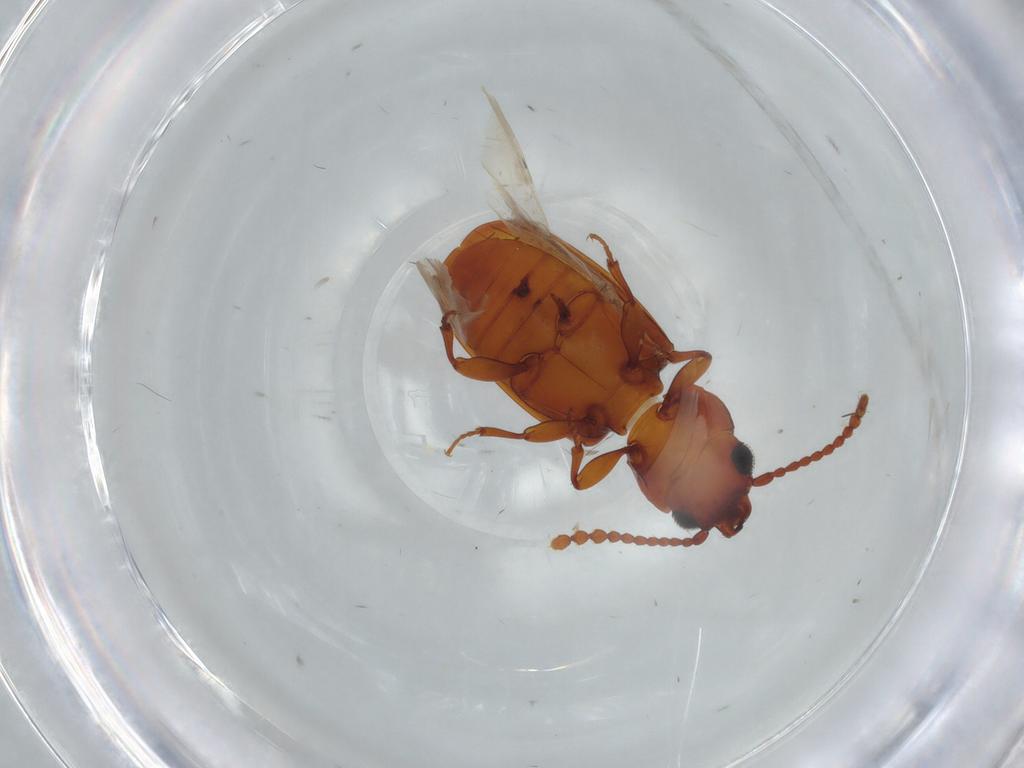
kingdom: Animalia
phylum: Arthropoda
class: Insecta
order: Coleoptera
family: Laemophloeidae
